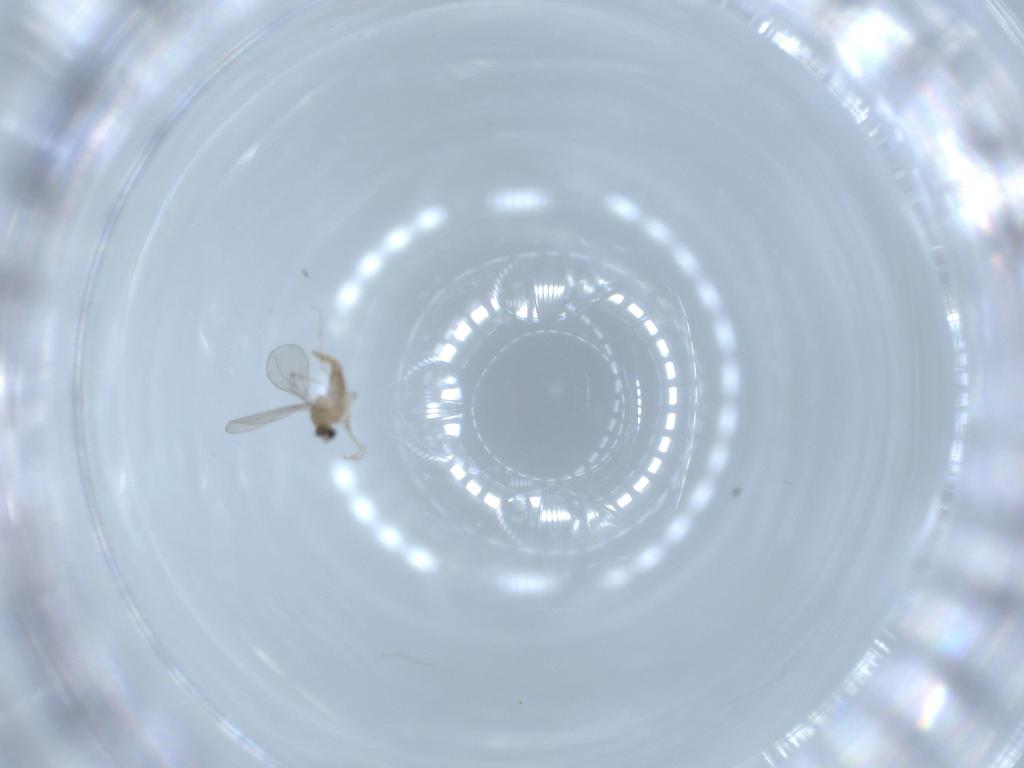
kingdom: Animalia
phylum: Arthropoda
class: Insecta
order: Diptera
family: Cecidomyiidae
